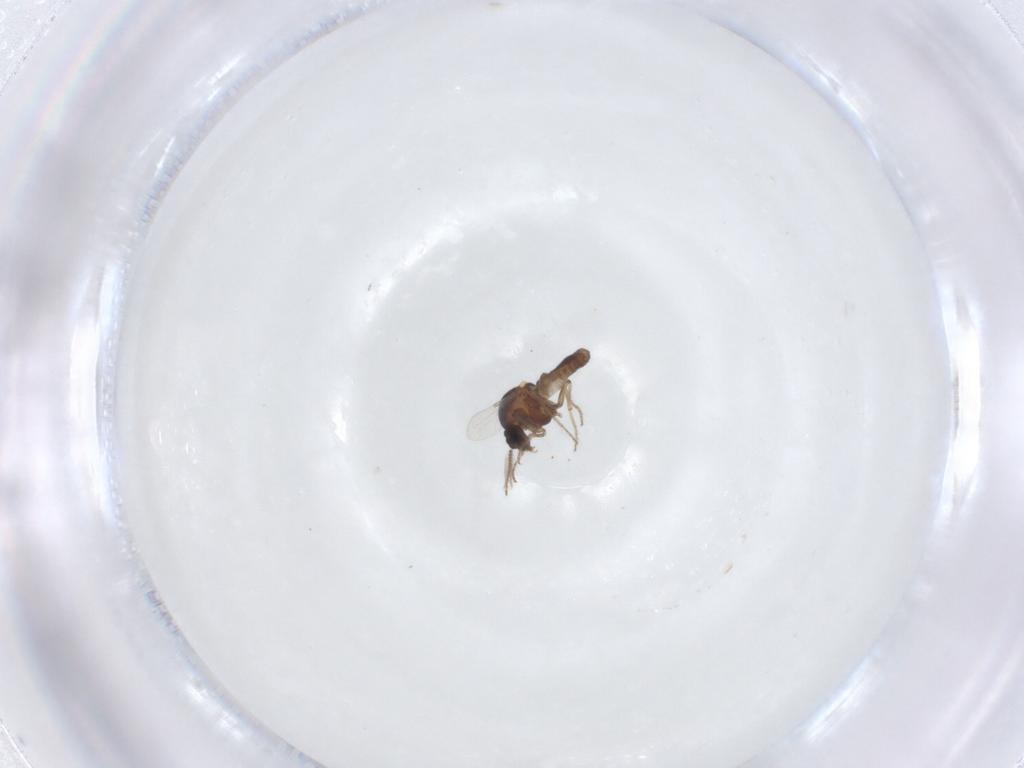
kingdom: Animalia
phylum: Arthropoda
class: Insecta
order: Diptera
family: Ceratopogonidae
